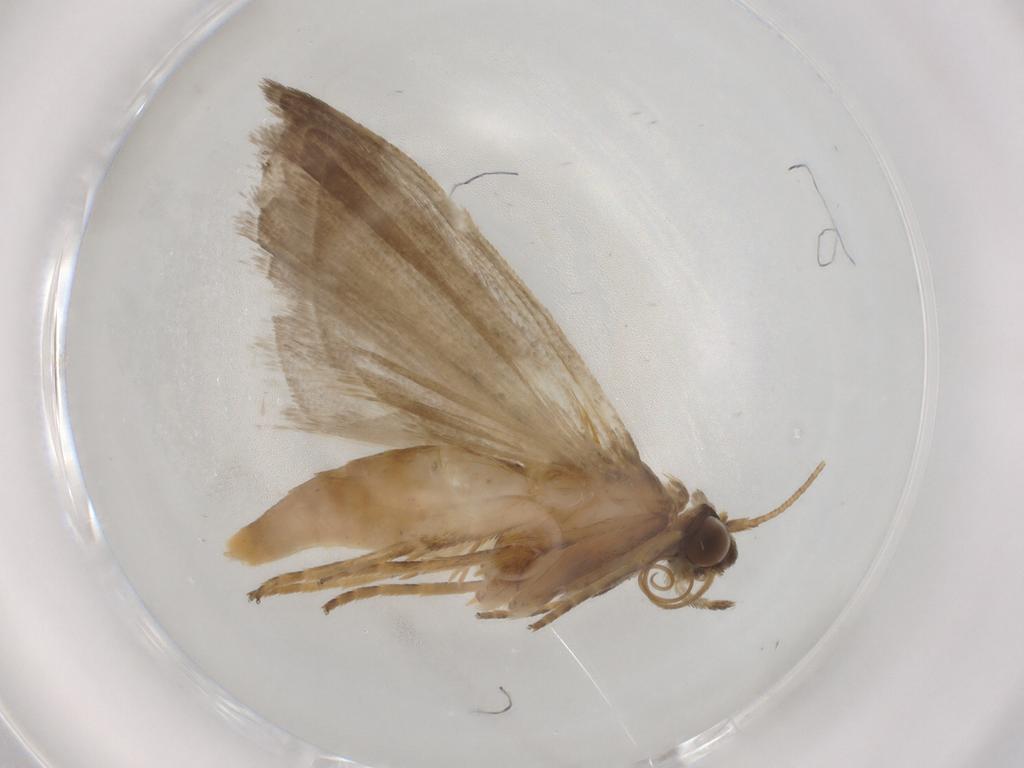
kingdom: Animalia
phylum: Arthropoda
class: Insecta
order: Lepidoptera
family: Noctuidae
